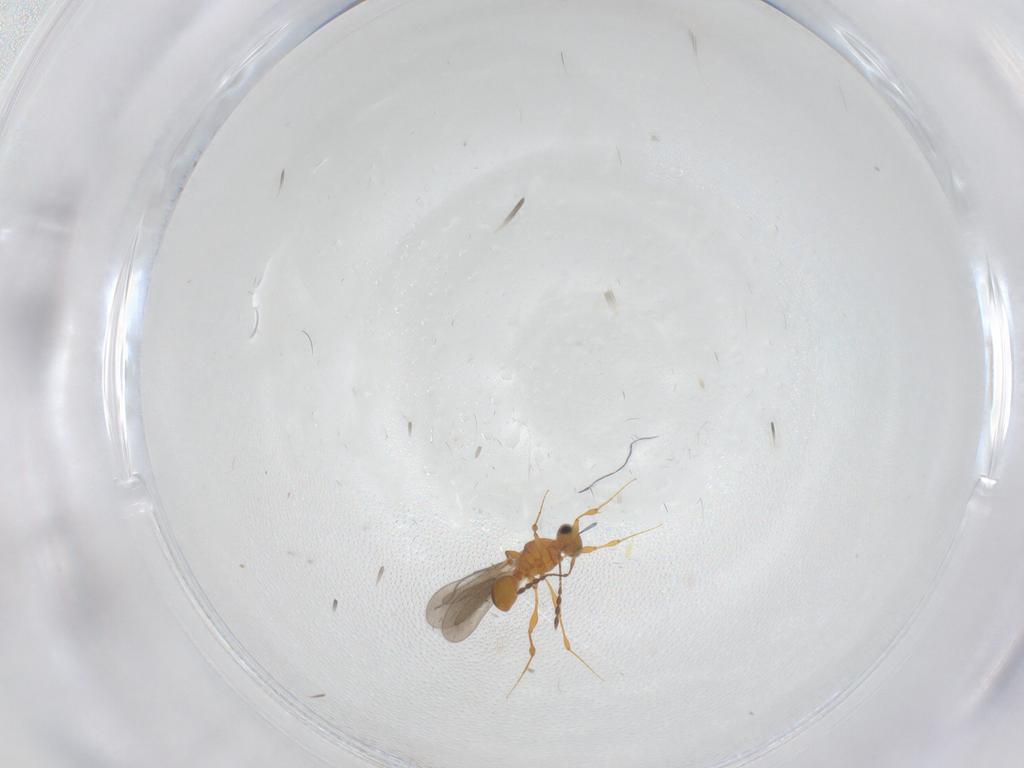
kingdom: Animalia
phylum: Arthropoda
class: Insecta
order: Hymenoptera
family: Platygastridae
